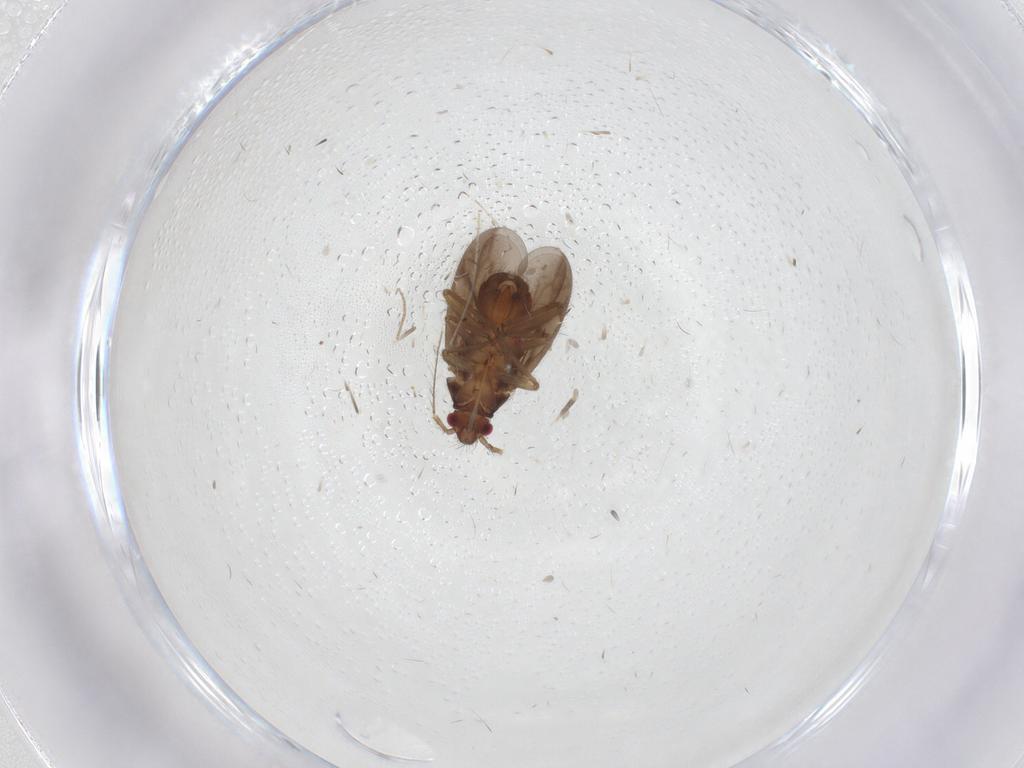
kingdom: Animalia
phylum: Arthropoda
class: Insecta
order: Hemiptera
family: Ceratocombidae
